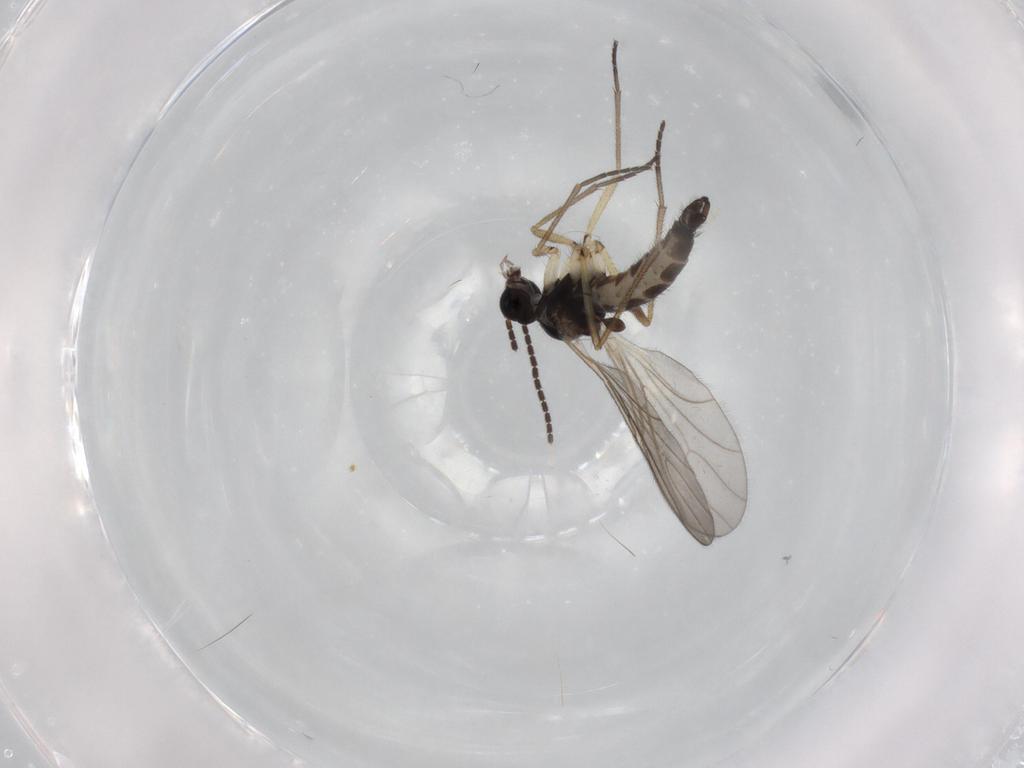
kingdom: Animalia
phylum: Arthropoda
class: Insecta
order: Diptera
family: Sciaridae
